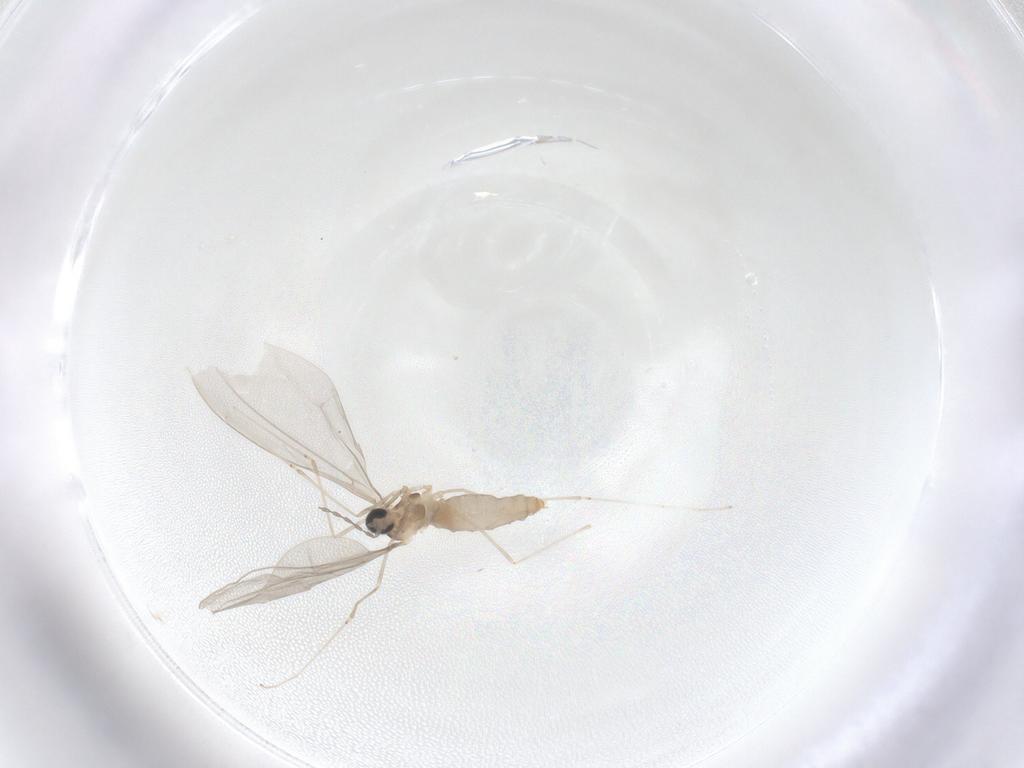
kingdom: Animalia
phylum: Arthropoda
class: Insecta
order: Diptera
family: Cecidomyiidae
